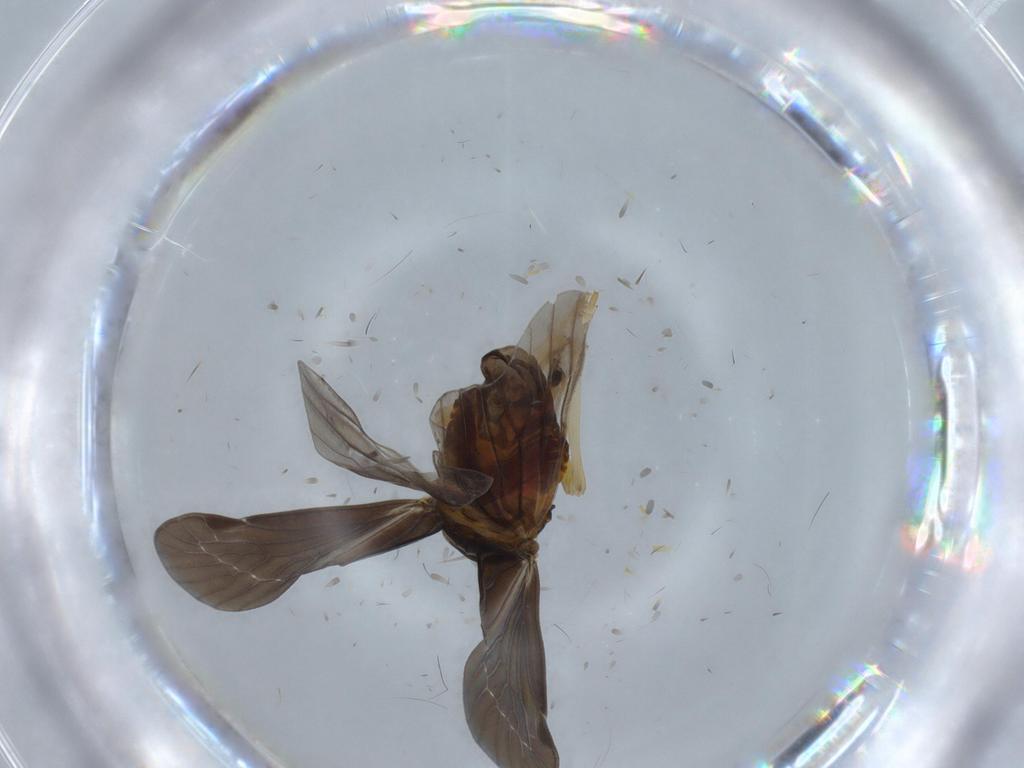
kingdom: Animalia
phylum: Arthropoda
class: Insecta
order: Hemiptera
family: Derbidae
